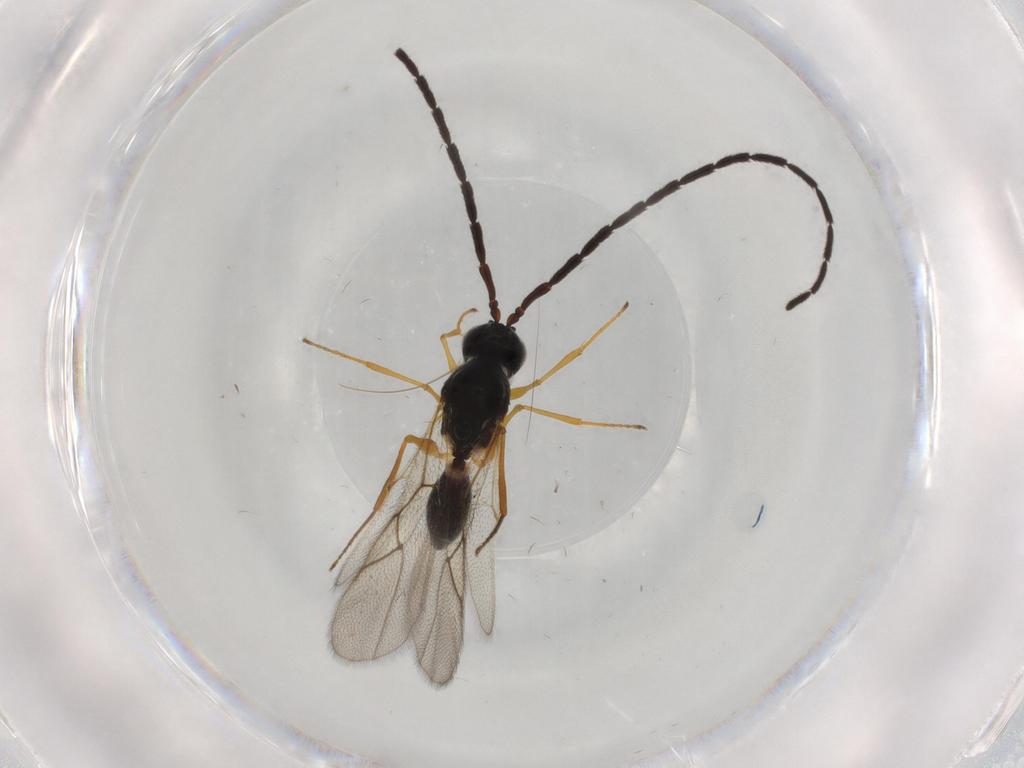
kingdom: Animalia
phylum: Arthropoda
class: Insecta
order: Hymenoptera
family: Figitidae
